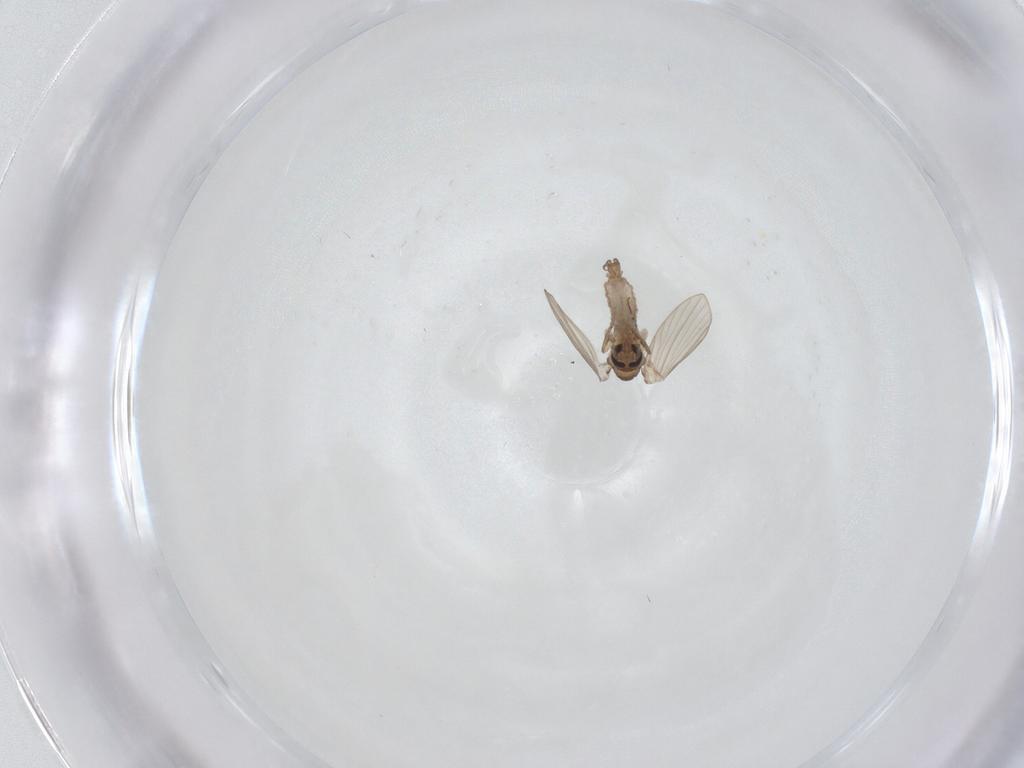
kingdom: Animalia
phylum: Arthropoda
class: Insecta
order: Diptera
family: Psychodidae
